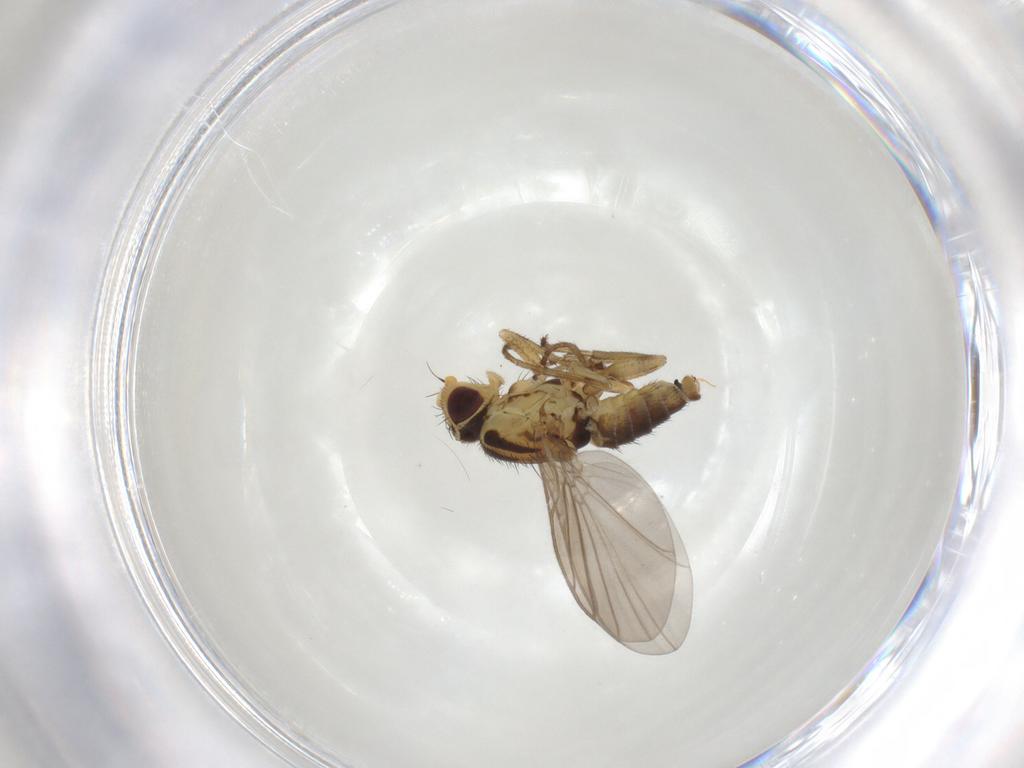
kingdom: Animalia
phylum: Arthropoda
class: Insecta
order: Diptera
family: Agromyzidae
